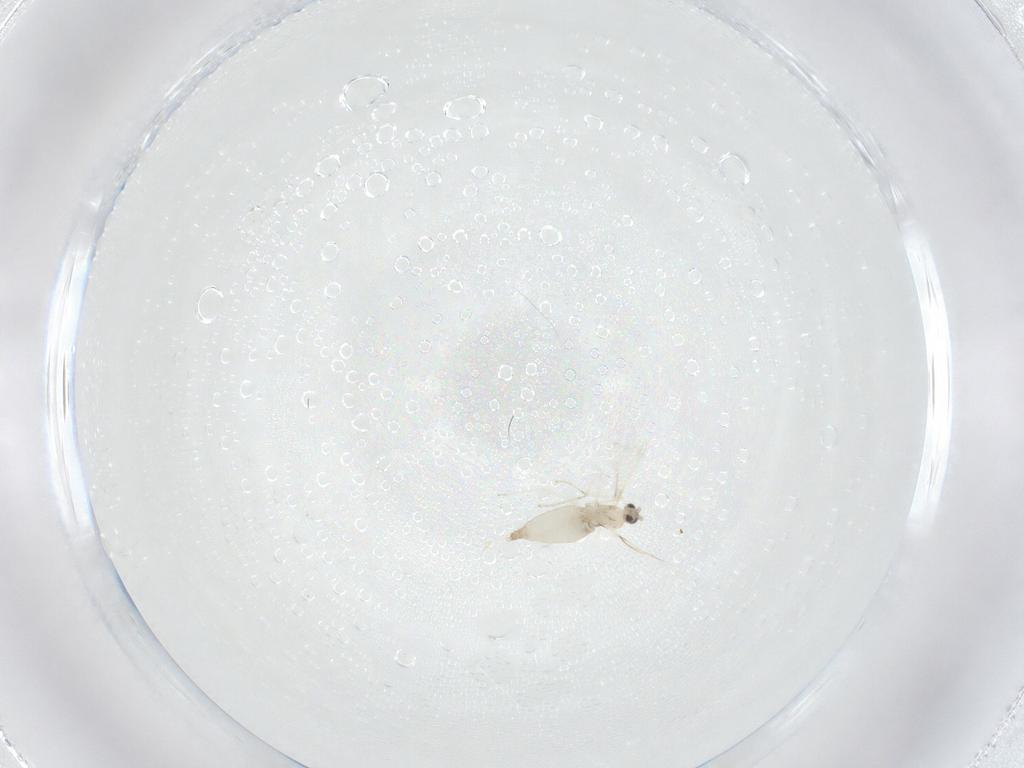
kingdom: Animalia
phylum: Arthropoda
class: Insecta
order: Diptera
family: Cecidomyiidae
